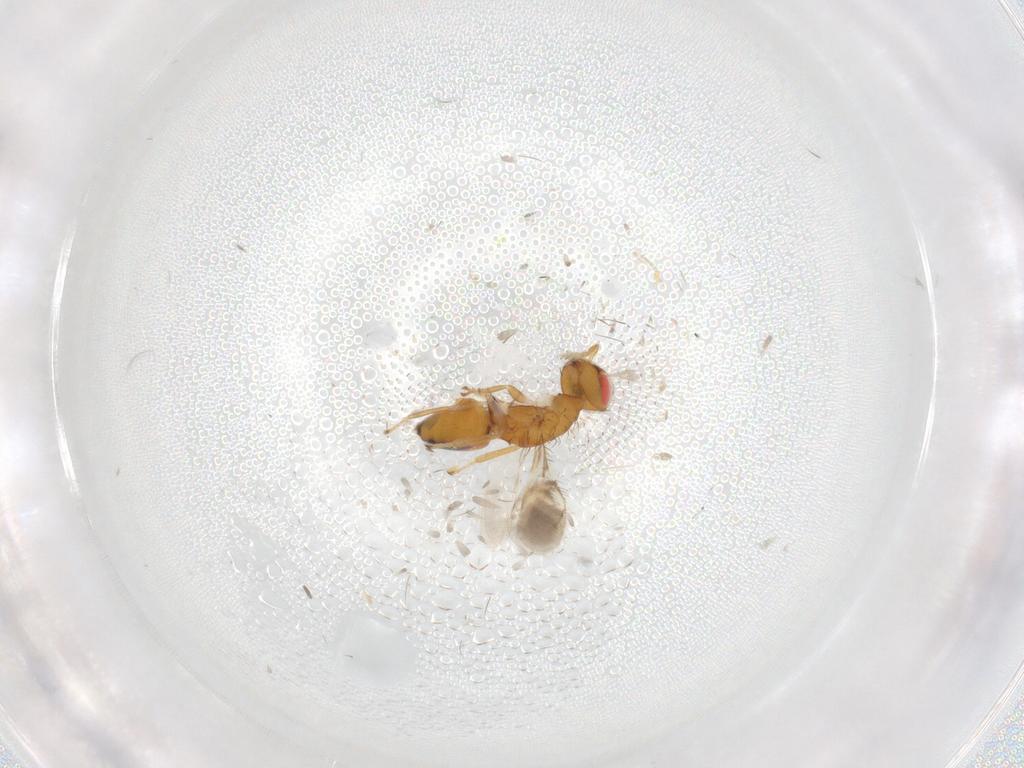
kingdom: Animalia
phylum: Arthropoda
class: Insecta
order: Hymenoptera
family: Eulophidae
